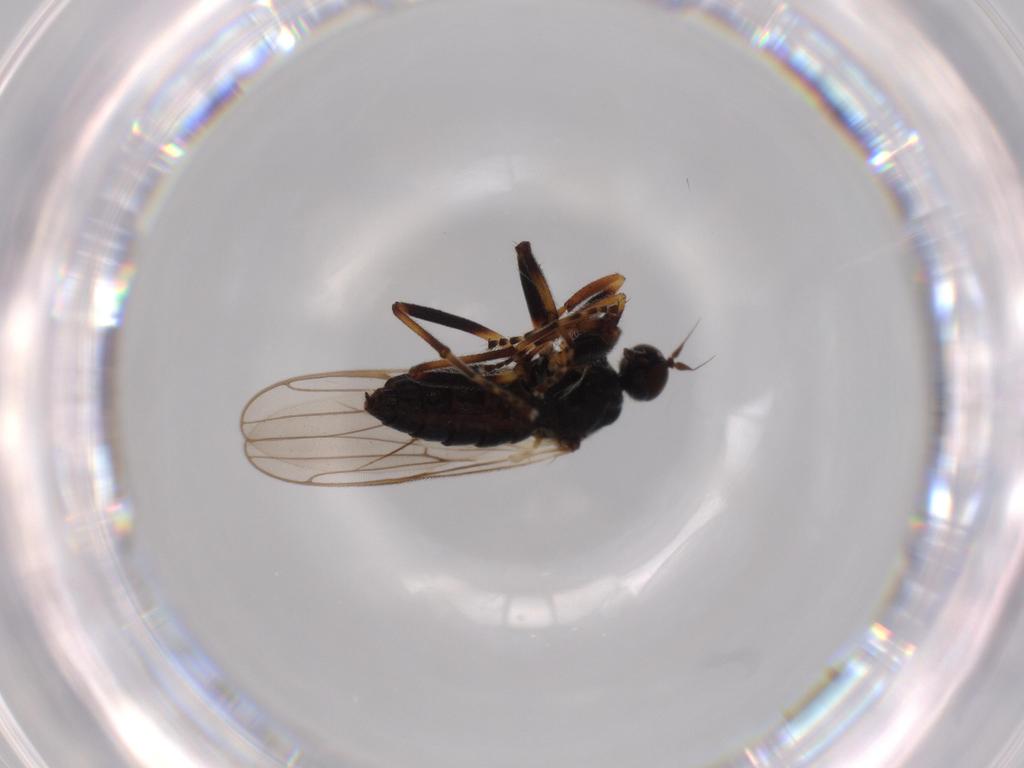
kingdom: Animalia
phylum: Arthropoda
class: Insecta
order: Diptera
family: Hybotidae
